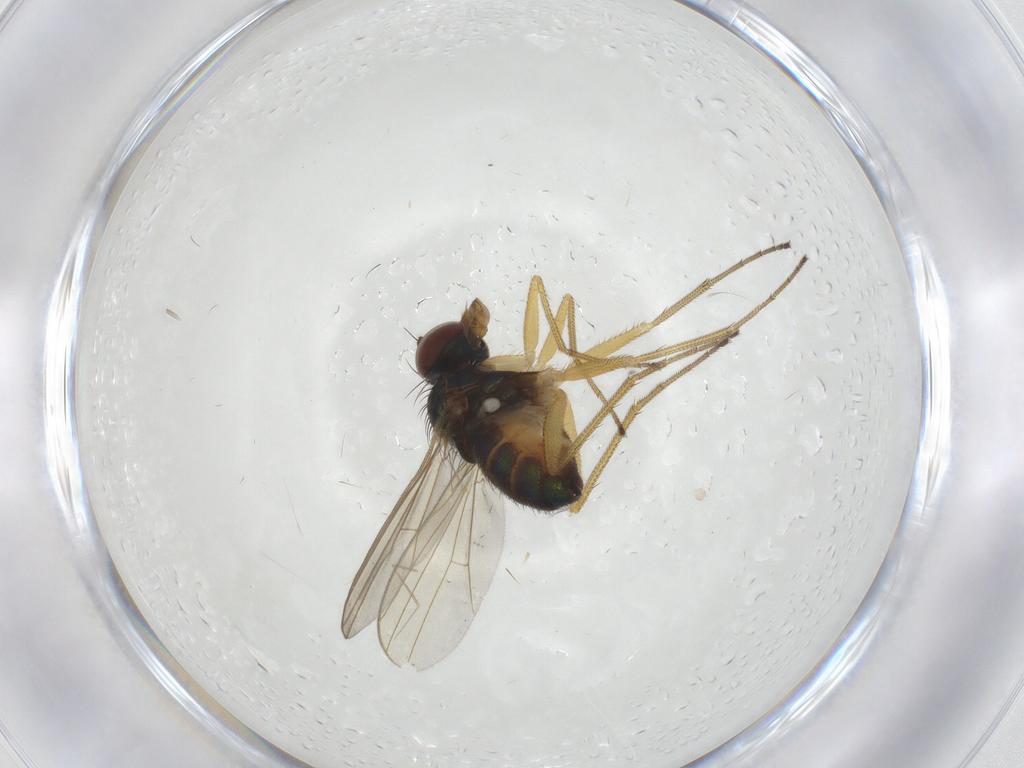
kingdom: Animalia
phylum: Arthropoda
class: Insecta
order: Diptera
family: Dolichopodidae
